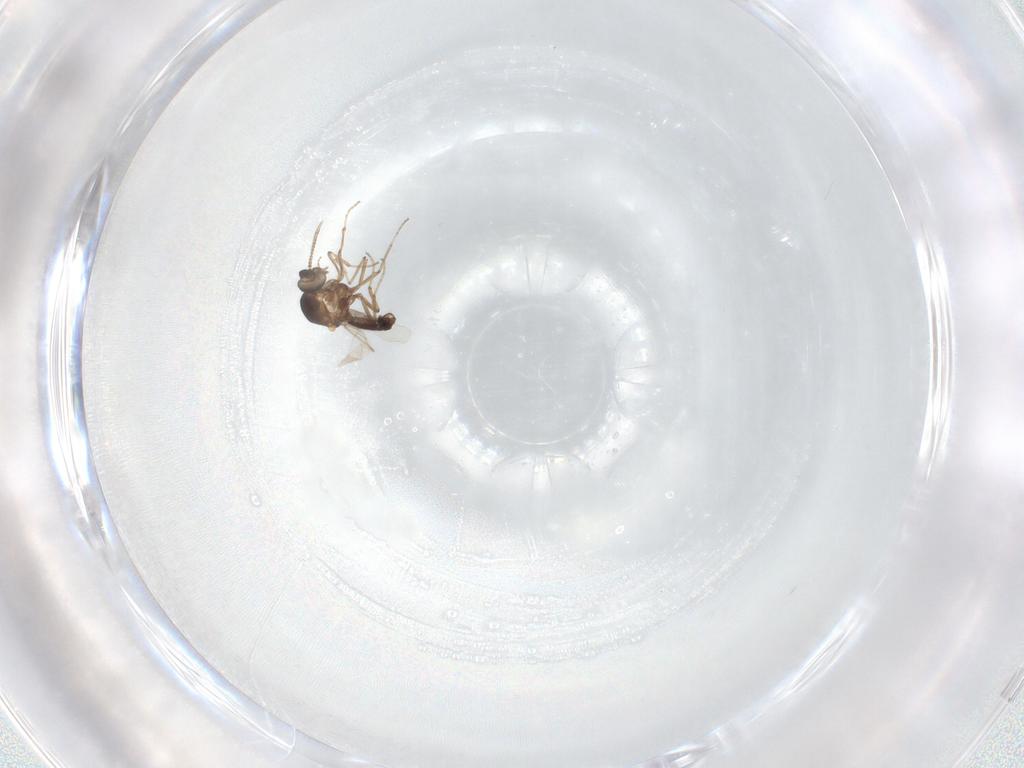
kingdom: Animalia
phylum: Arthropoda
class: Insecta
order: Diptera
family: Ceratopogonidae
